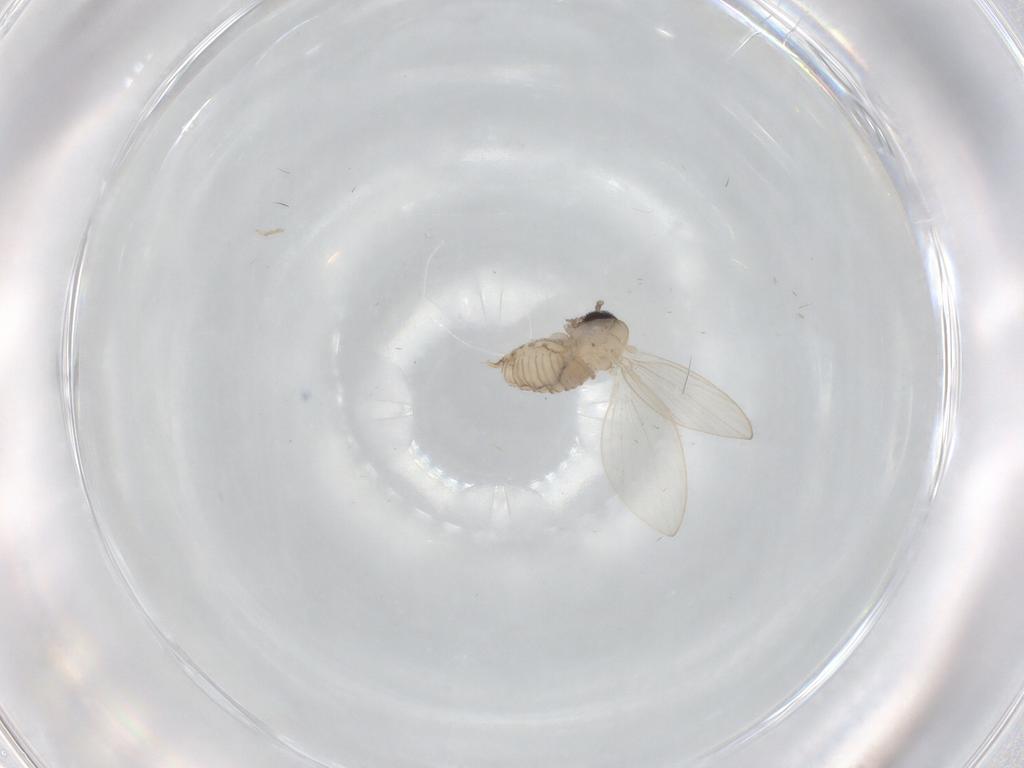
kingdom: Animalia
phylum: Arthropoda
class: Insecta
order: Diptera
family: Psychodidae
